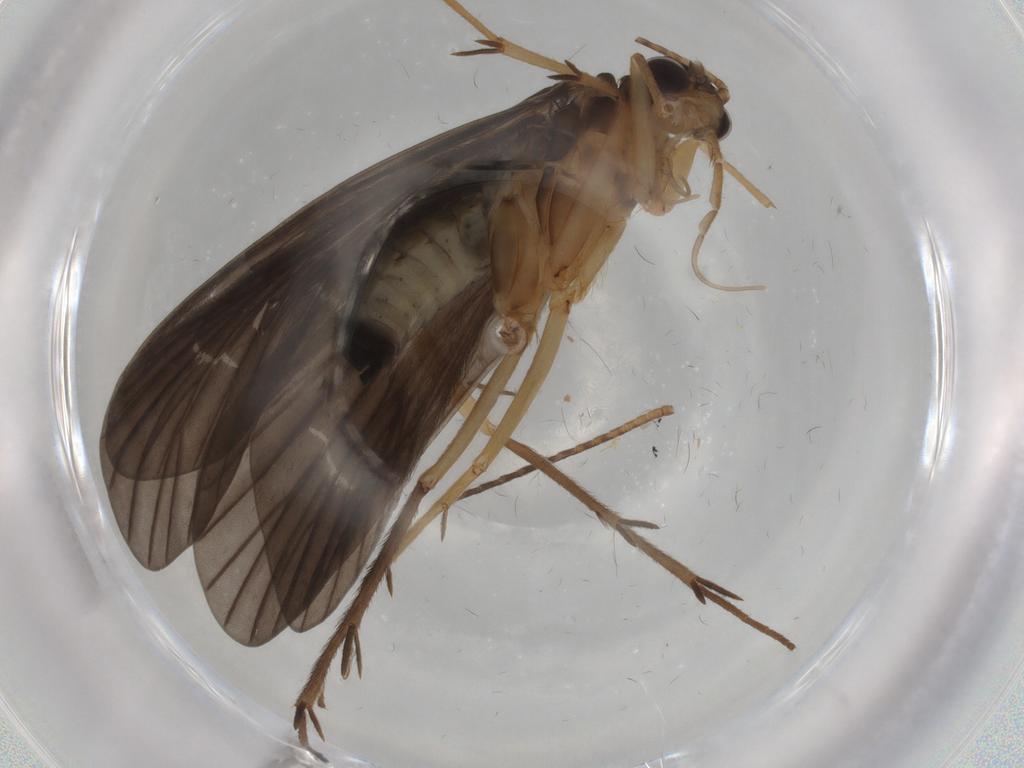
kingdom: Animalia
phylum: Arthropoda
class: Insecta
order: Trichoptera
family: Philopotamidae
